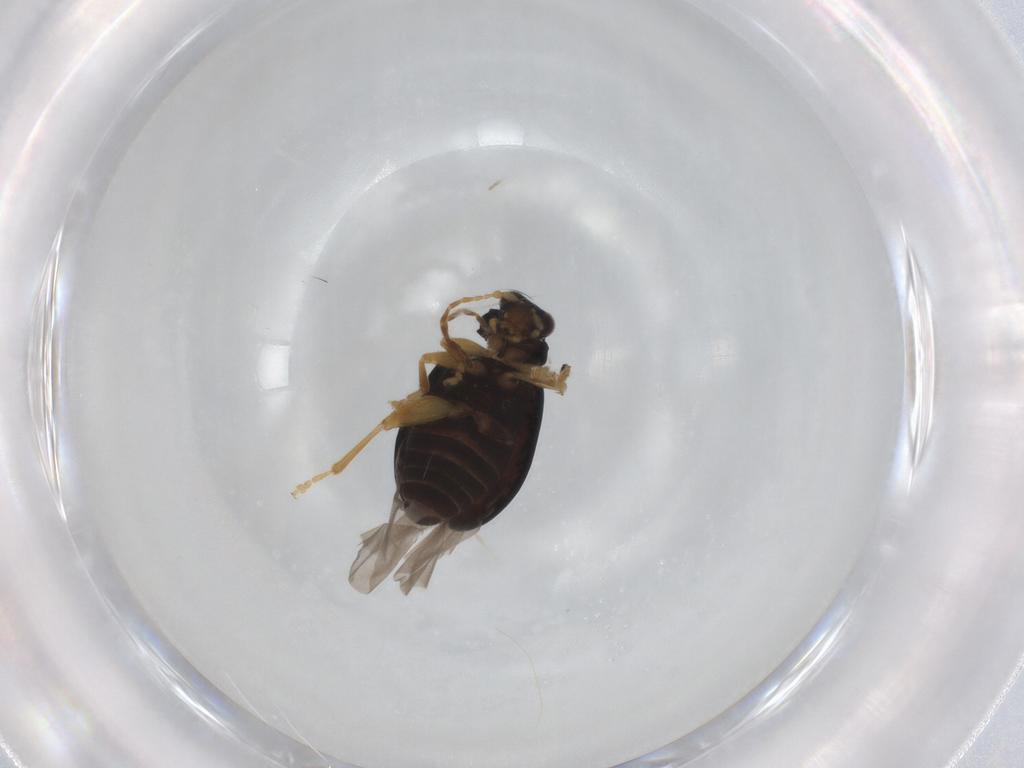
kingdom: Animalia
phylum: Arthropoda
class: Insecta
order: Coleoptera
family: Chrysomelidae
